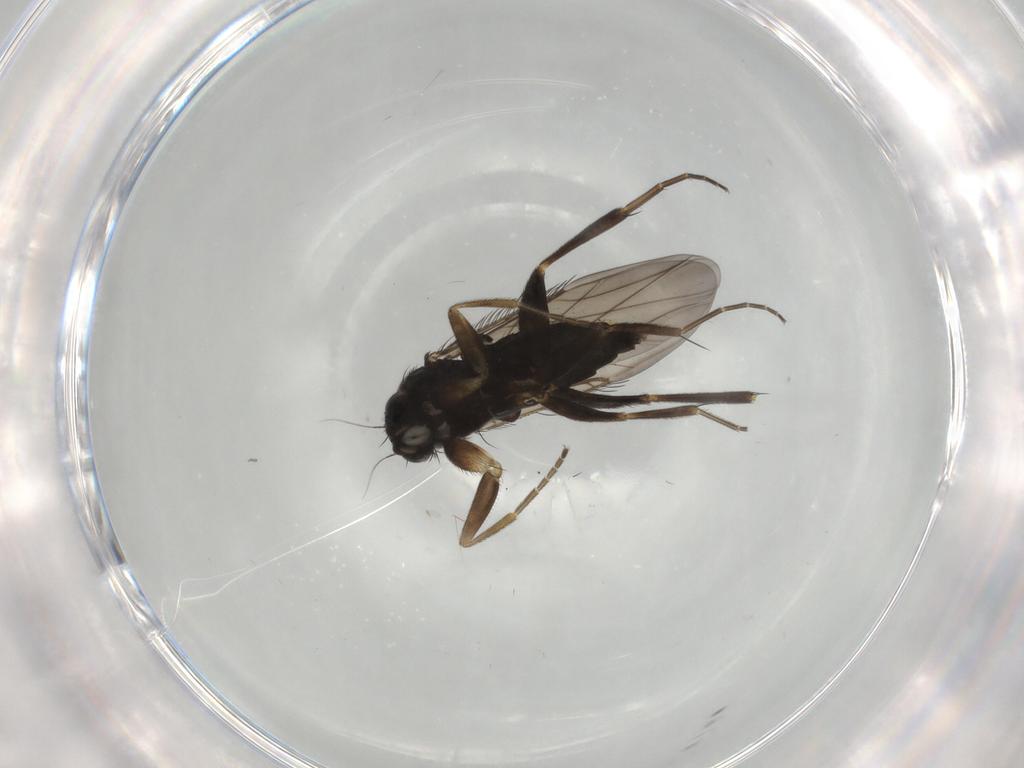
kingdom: Animalia
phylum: Arthropoda
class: Insecta
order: Diptera
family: Phoridae
